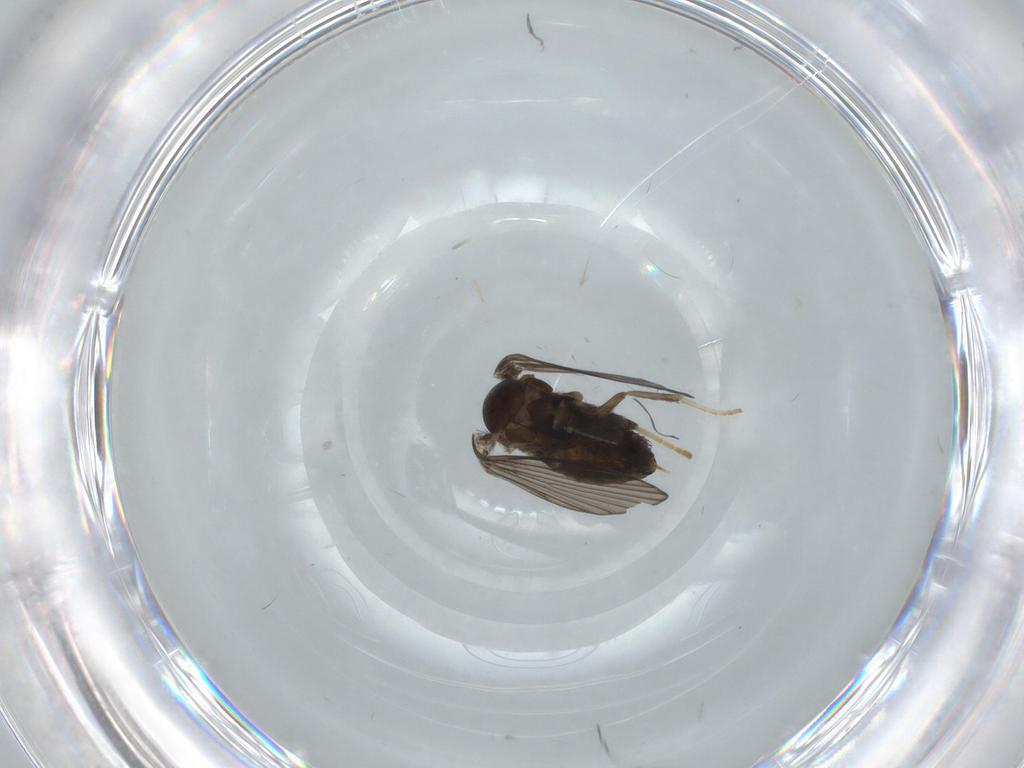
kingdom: Animalia
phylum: Arthropoda
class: Insecta
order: Diptera
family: Psychodidae
